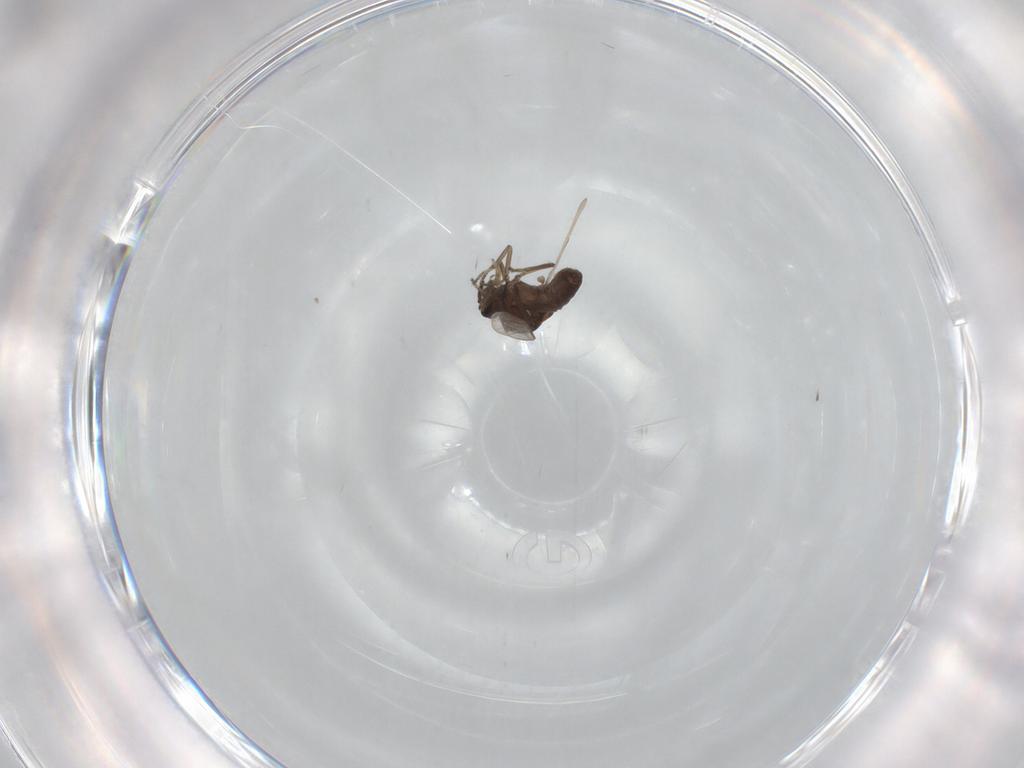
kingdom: Animalia
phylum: Arthropoda
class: Insecta
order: Diptera
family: Ceratopogonidae
